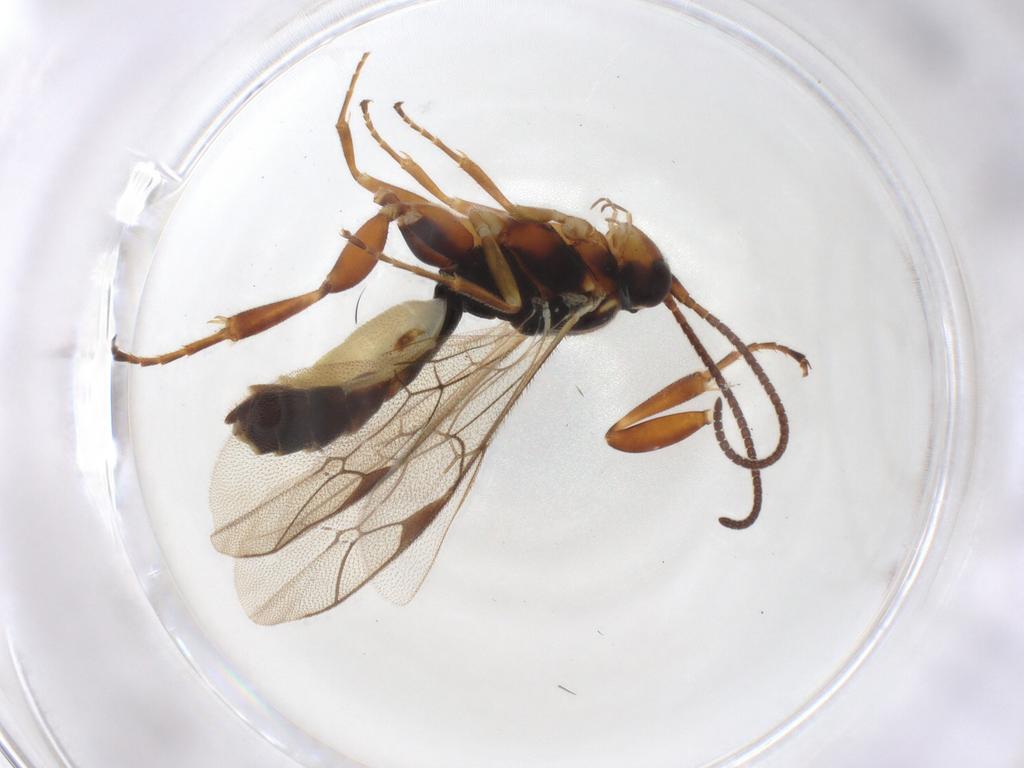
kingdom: Animalia
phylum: Arthropoda
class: Insecta
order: Hymenoptera
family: Ichneumonidae
